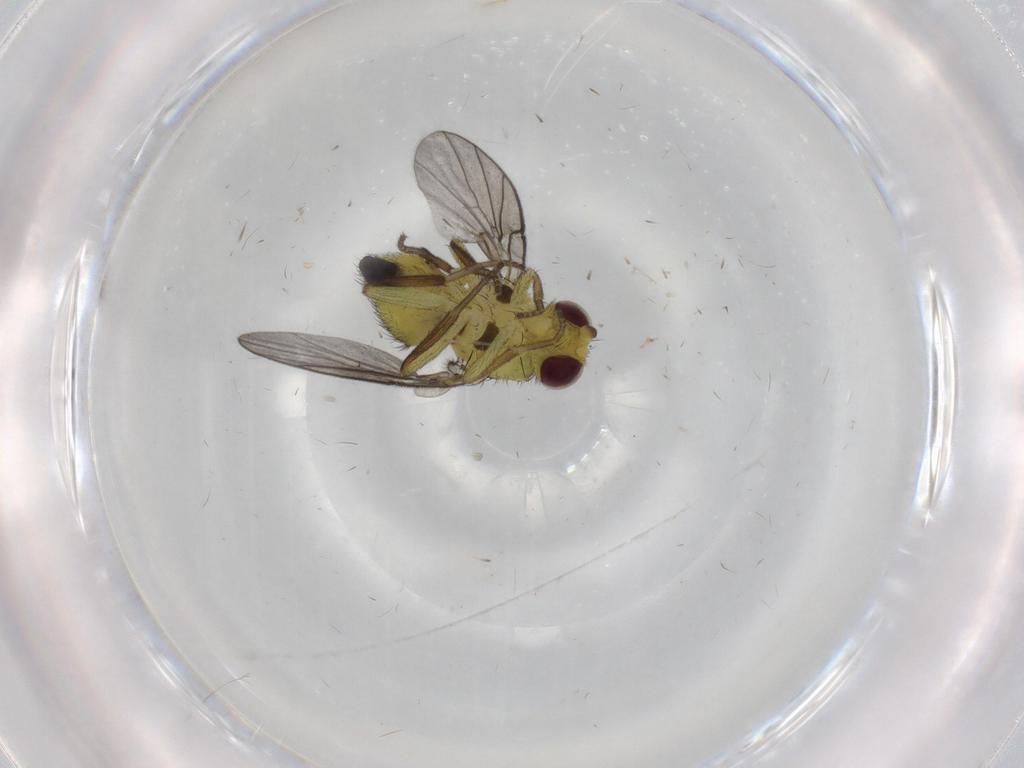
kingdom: Animalia
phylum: Arthropoda
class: Insecta
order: Diptera
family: Agromyzidae
